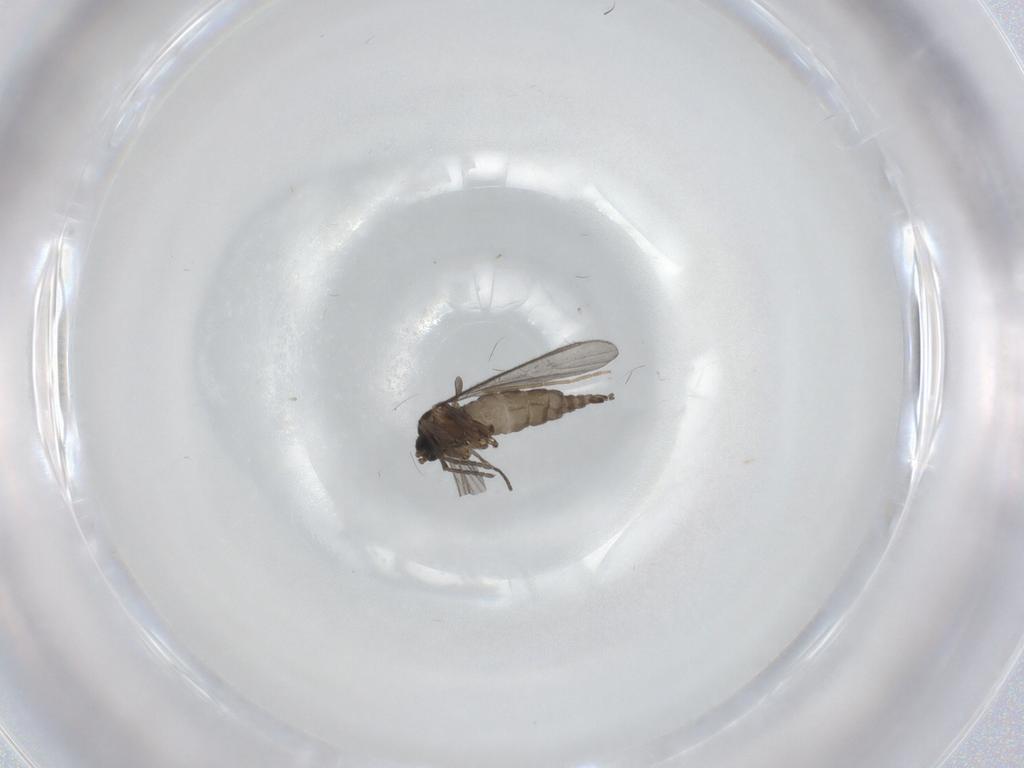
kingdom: Animalia
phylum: Arthropoda
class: Insecta
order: Diptera
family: Sciaridae
